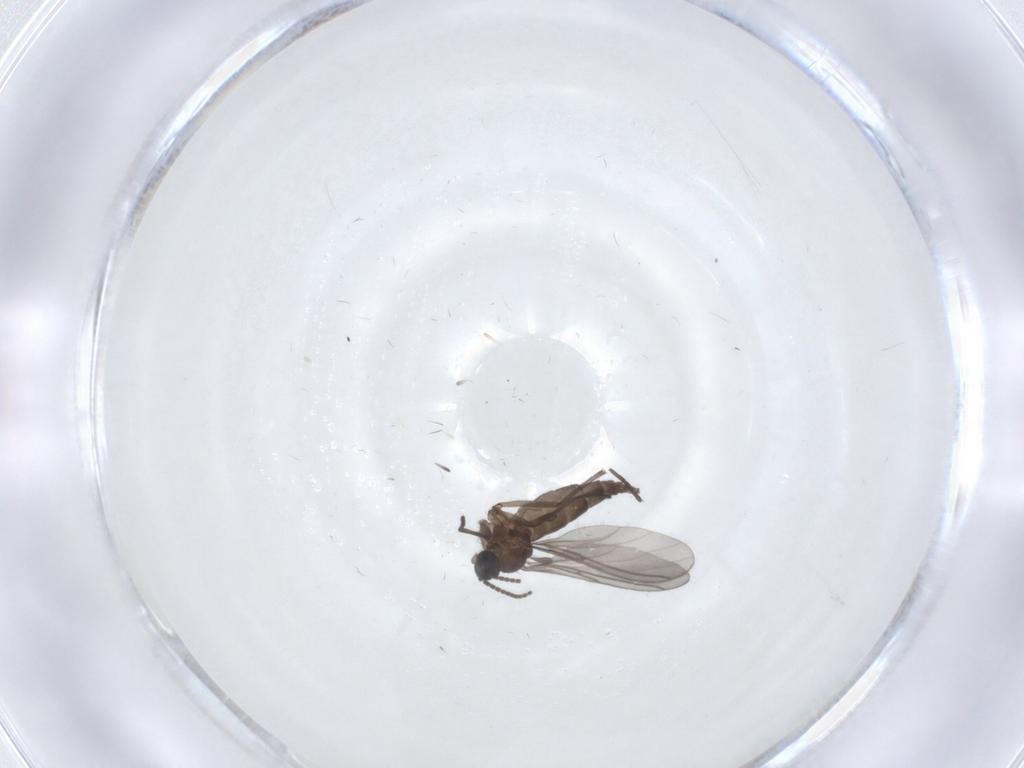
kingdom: Animalia
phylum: Arthropoda
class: Insecta
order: Diptera
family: Sciaridae
